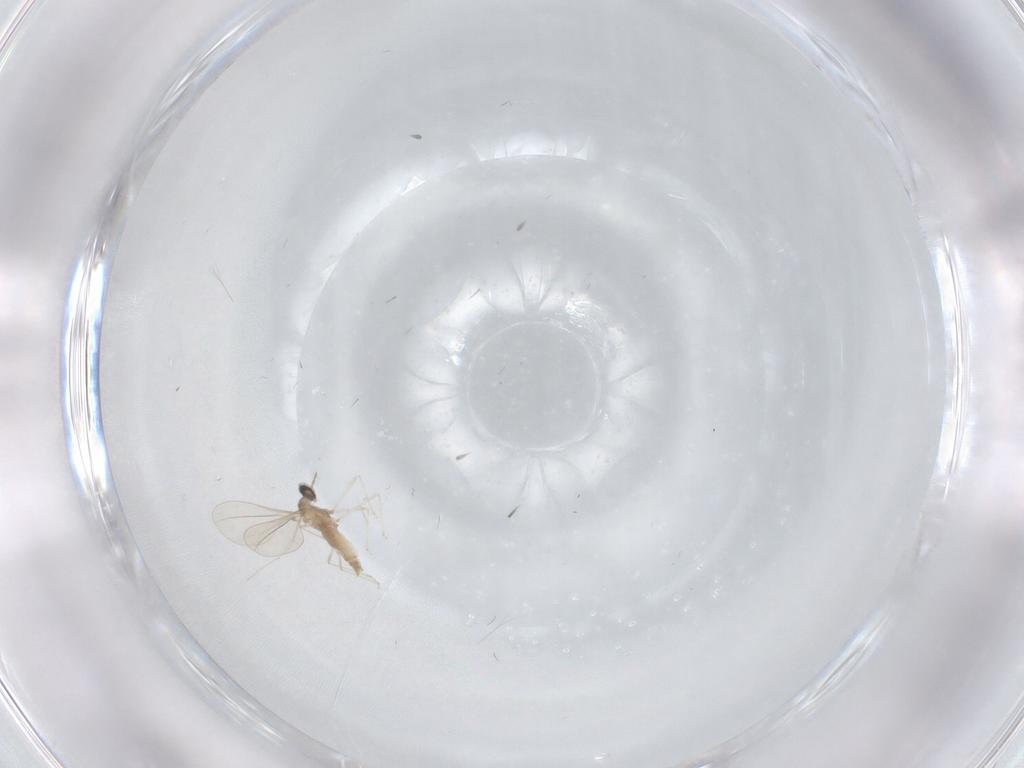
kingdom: Animalia
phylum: Arthropoda
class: Insecta
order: Diptera
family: Cecidomyiidae
